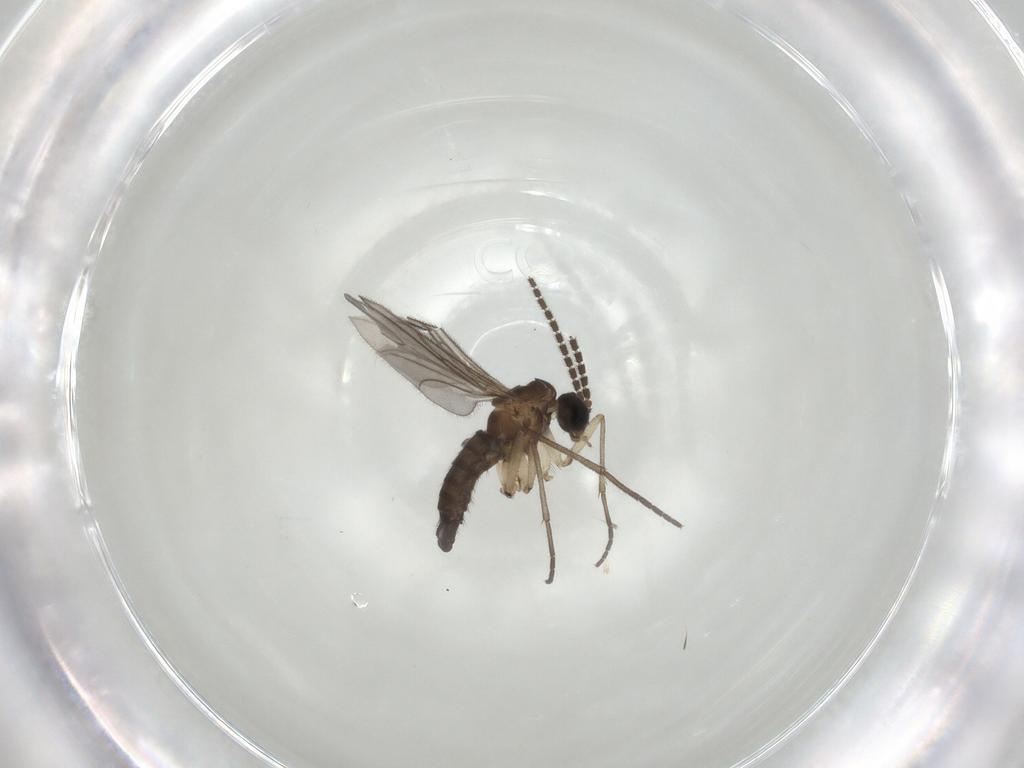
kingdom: Animalia
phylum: Arthropoda
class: Insecta
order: Diptera
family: Sciaridae
